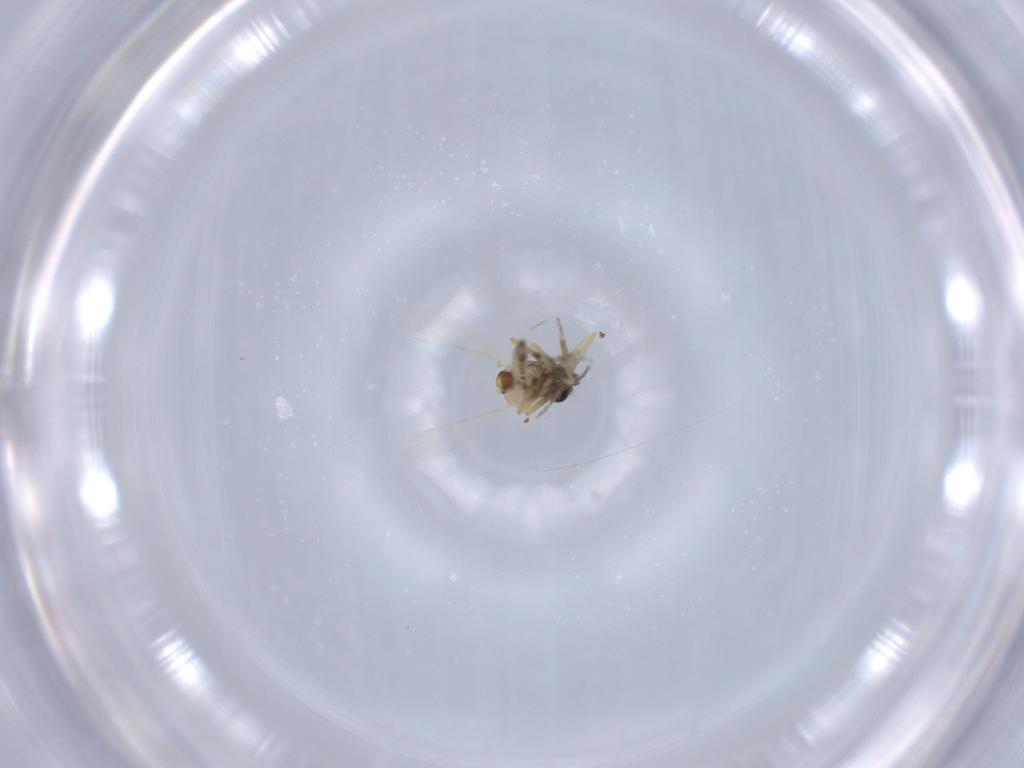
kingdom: Animalia
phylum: Arthropoda
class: Insecta
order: Diptera
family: Ceratopogonidae
